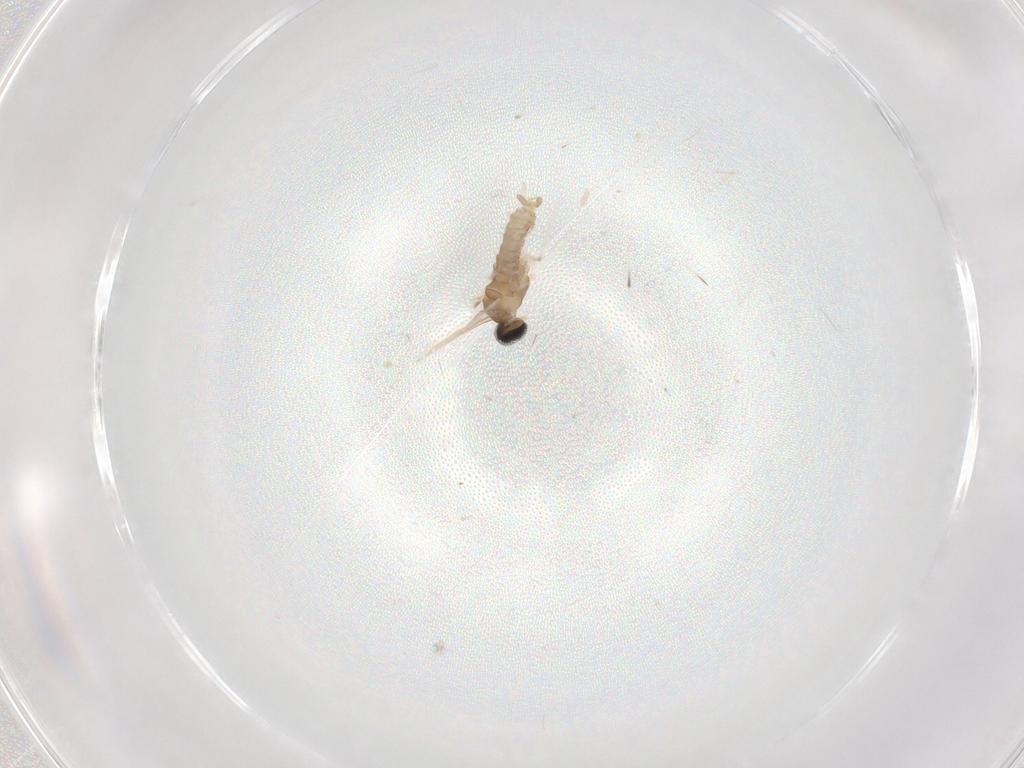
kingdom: Animalia
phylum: Arthropoda
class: Insecta
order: Diptera
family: Cecidomyiidae
